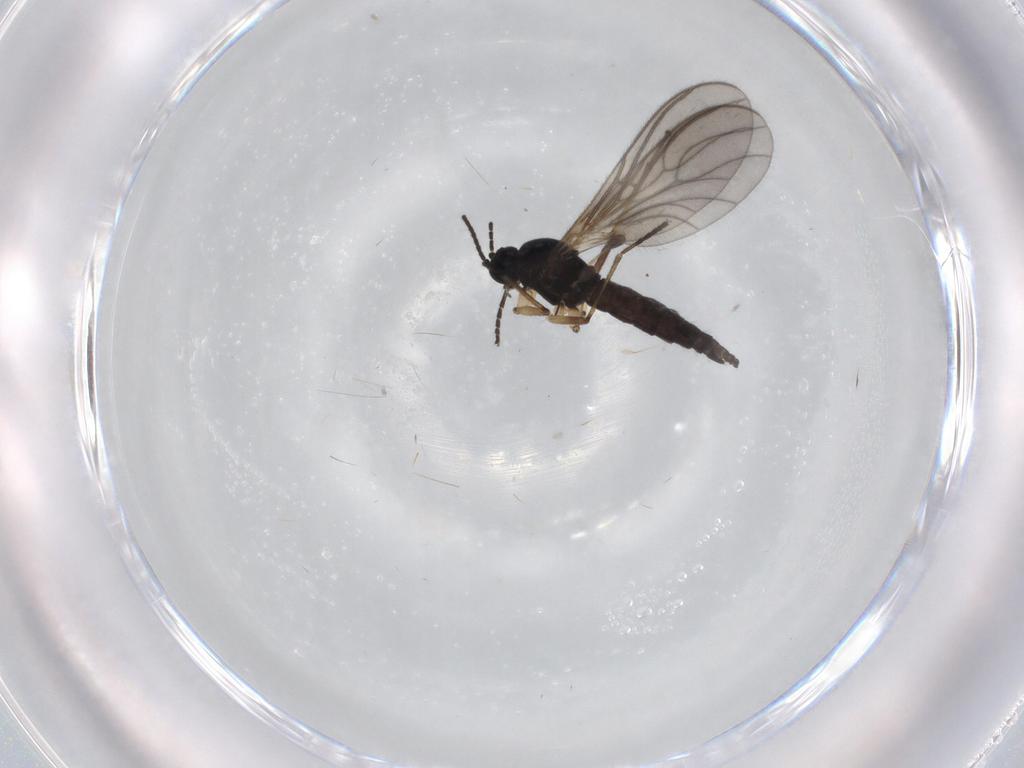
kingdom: Animalia
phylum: Arthropoda
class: Insecta
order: Diptera
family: Sciaridae
